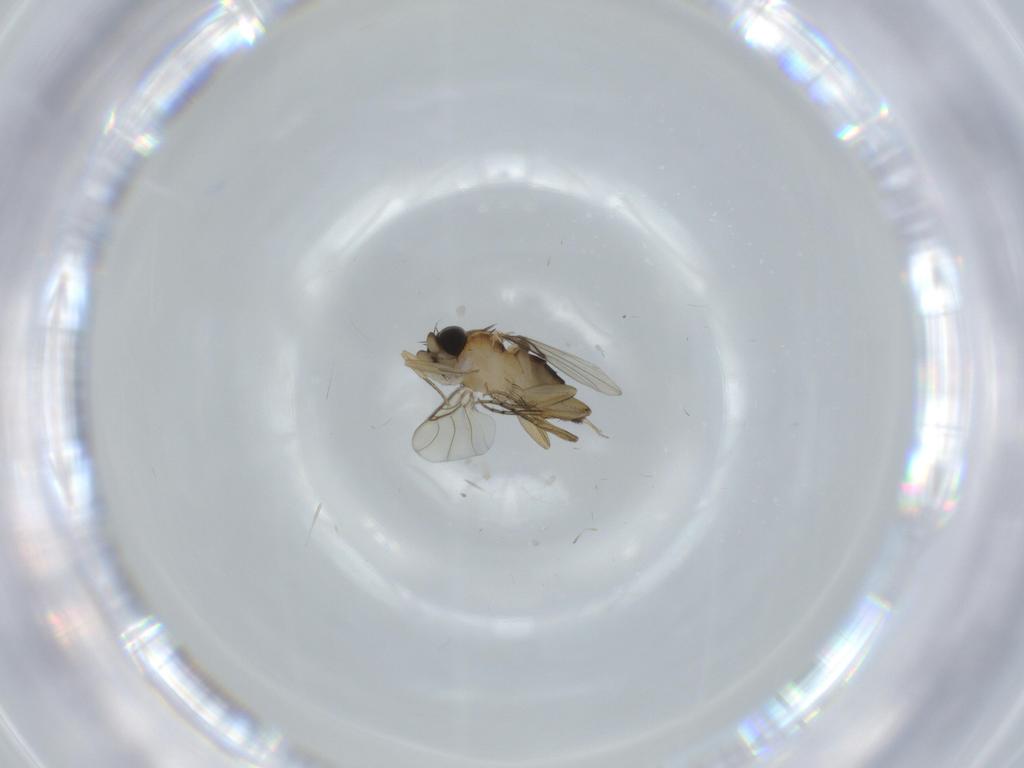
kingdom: Animalia
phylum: Arthropoda
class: Insecta
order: Diptera
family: Phoridae
